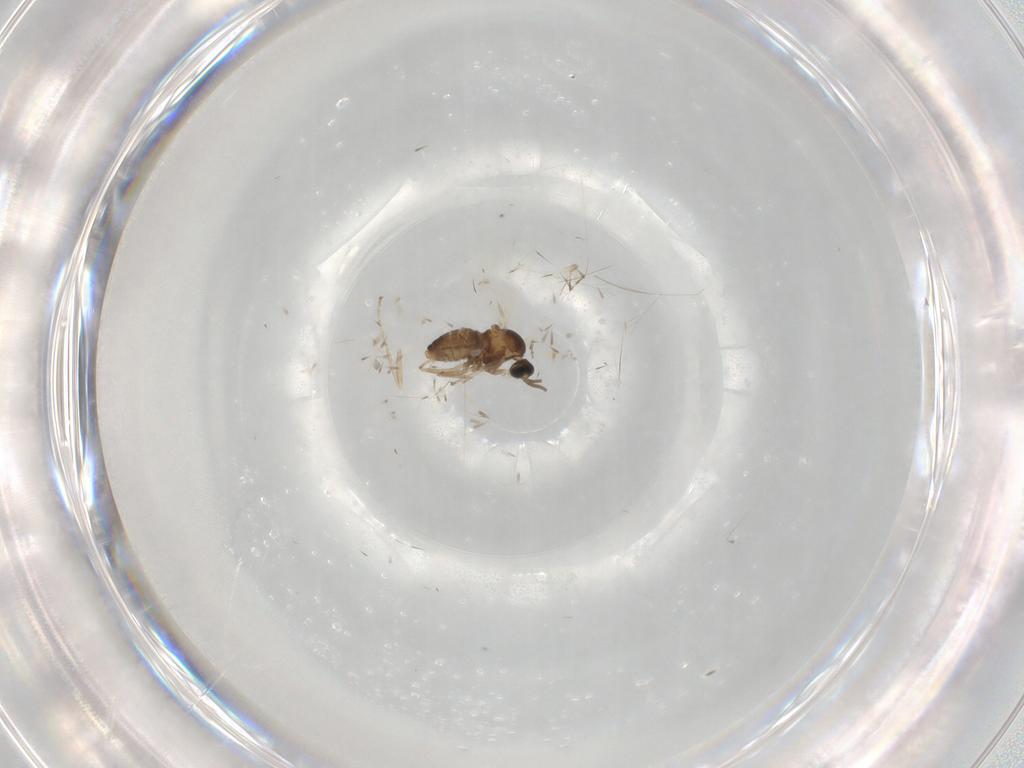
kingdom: Animalia
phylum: Arthropoda
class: Insecta
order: Diptera
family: Cecidomyiidae
